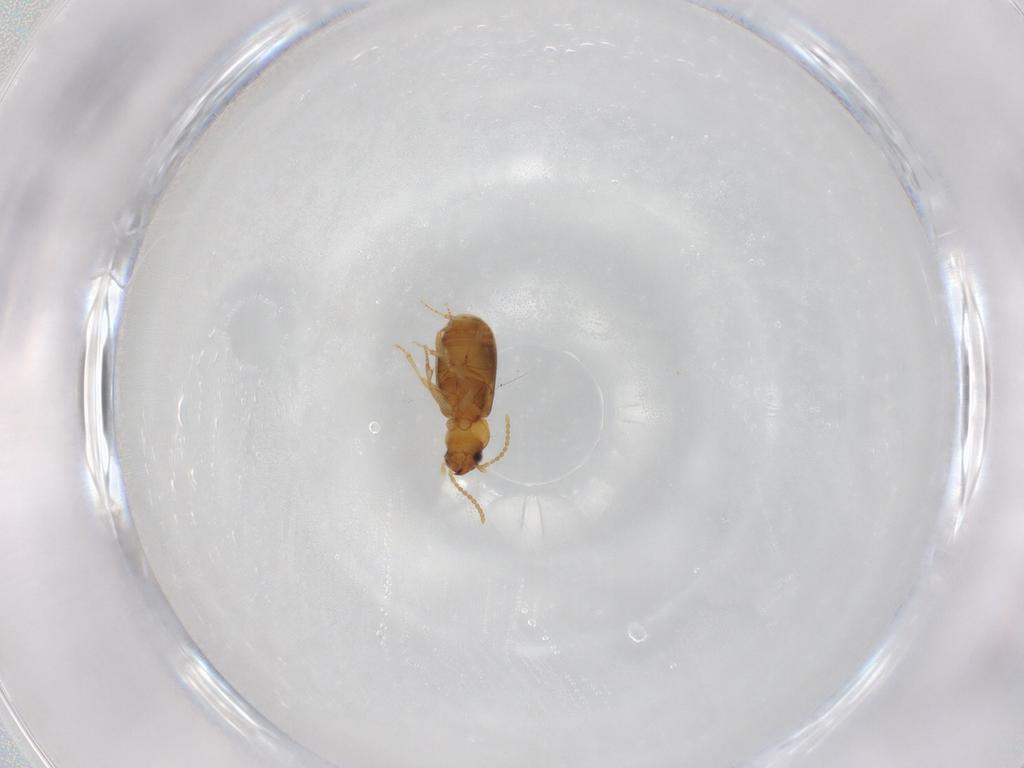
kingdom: Animalia
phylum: Arthropoda
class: Insecta
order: Coleoptera
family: Carabidae
